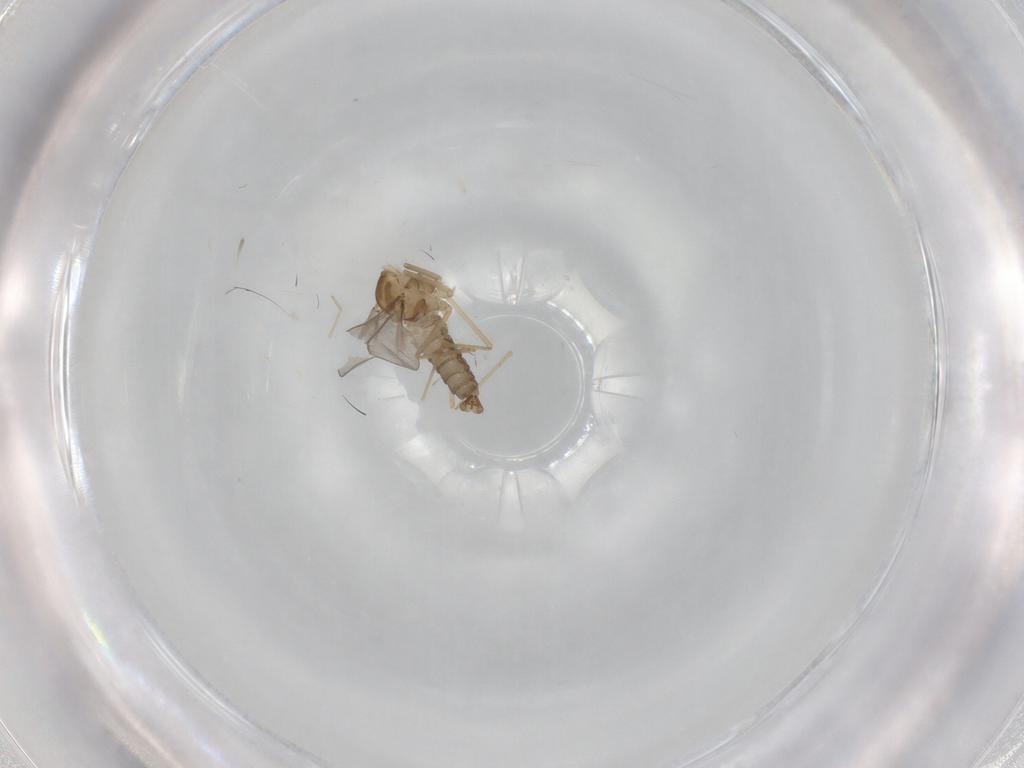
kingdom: Animalia
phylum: Arthropoda
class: Insecta
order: Diptera
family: Cecidomyiidae
